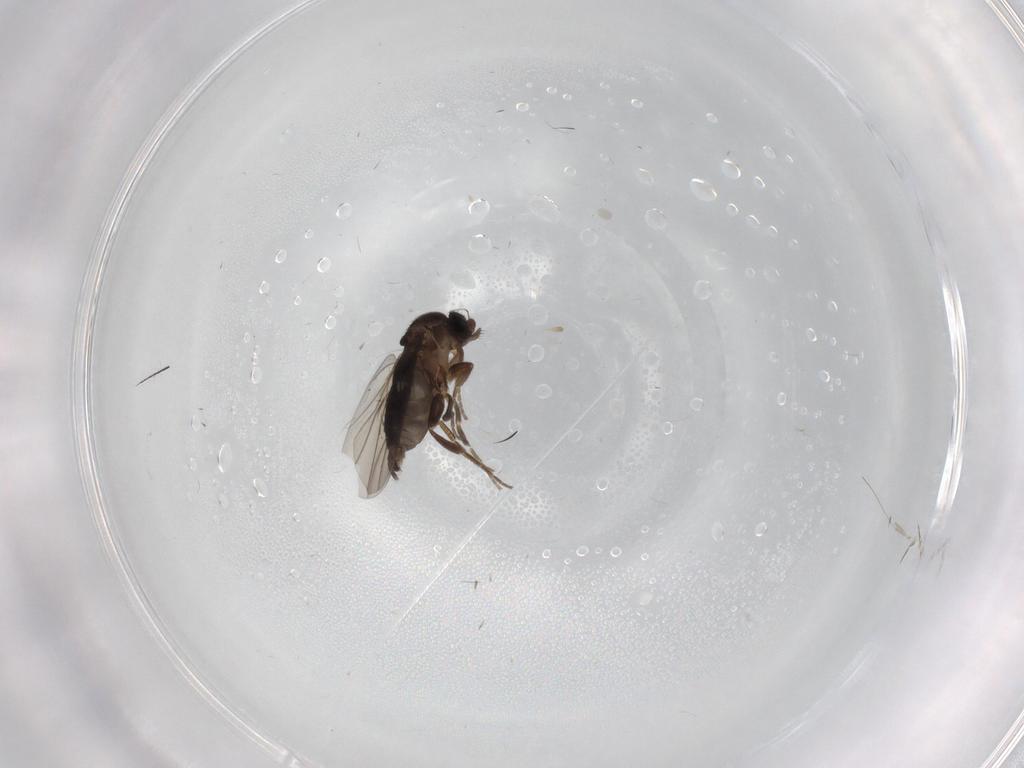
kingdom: Animalia
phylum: Arthropoda
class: Insecta
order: Diptera
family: Phoridae
